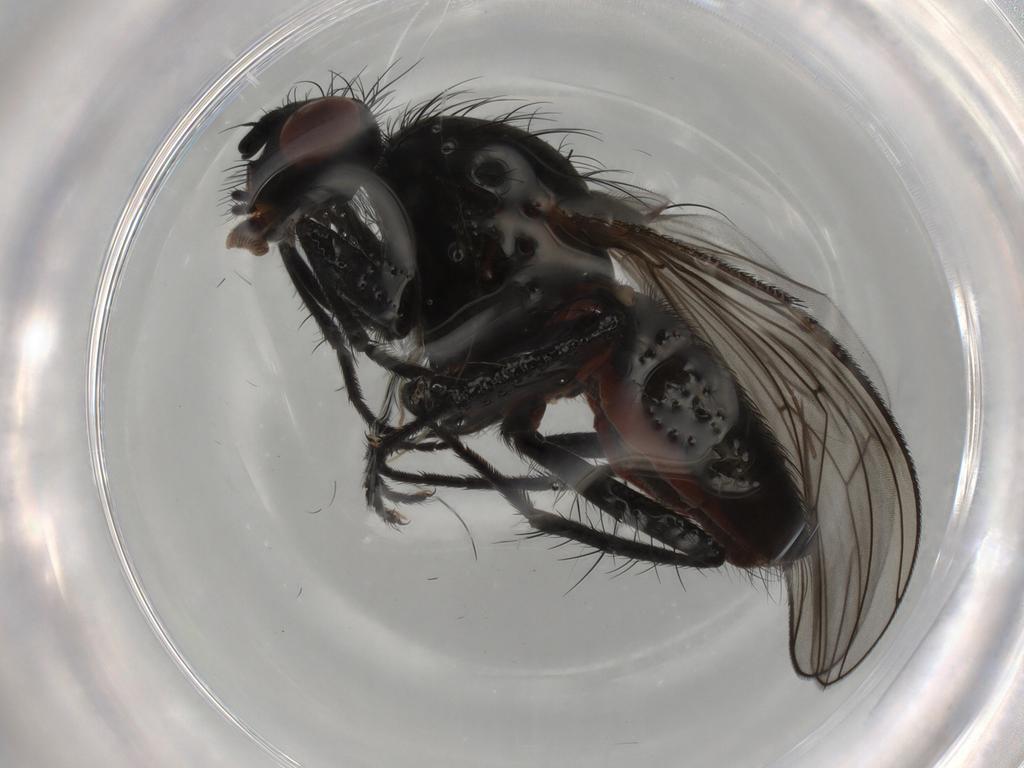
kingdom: Animalia
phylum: Arthropoda
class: Insecta
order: Diptera
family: Anthomyiidae
